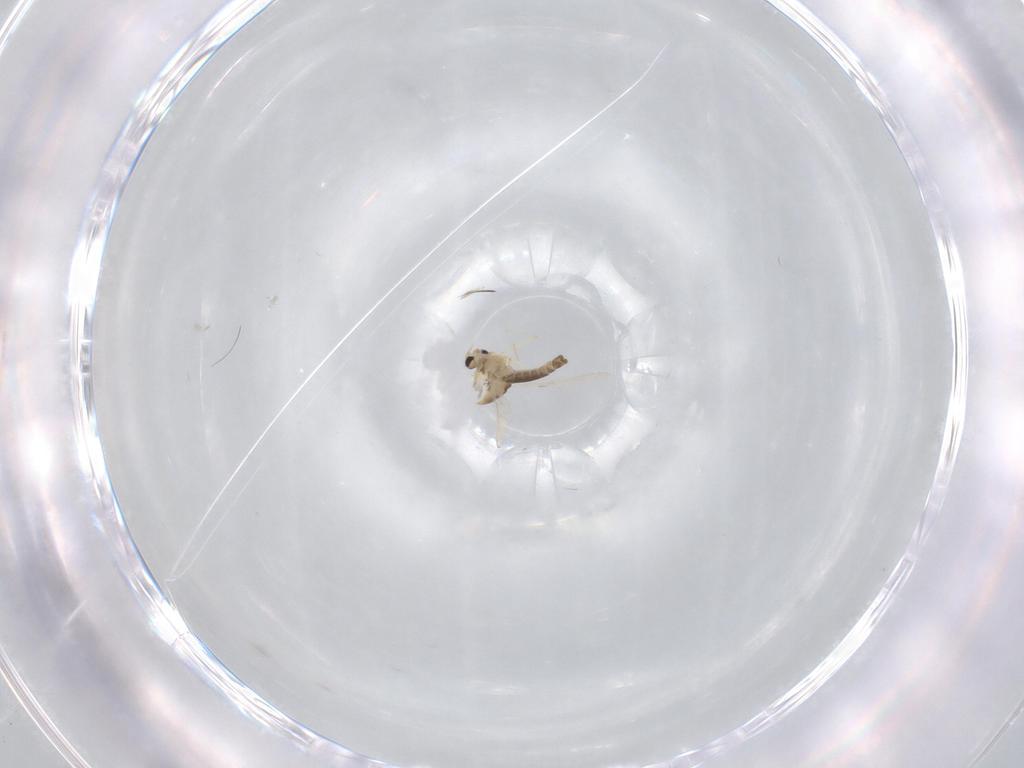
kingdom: Animalia
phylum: Arthropoda
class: Insecta
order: Diptera
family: Chironomidae
